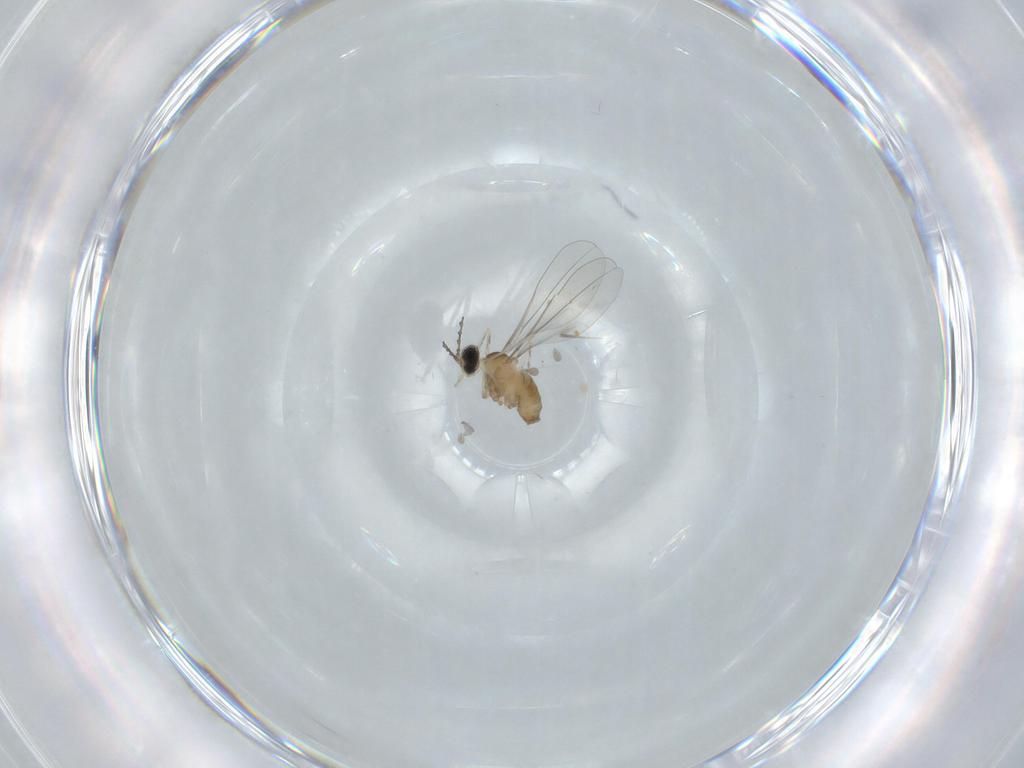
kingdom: Animalia
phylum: Arthropoda
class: Insecta
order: Diptera
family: Cecidomyiidae
